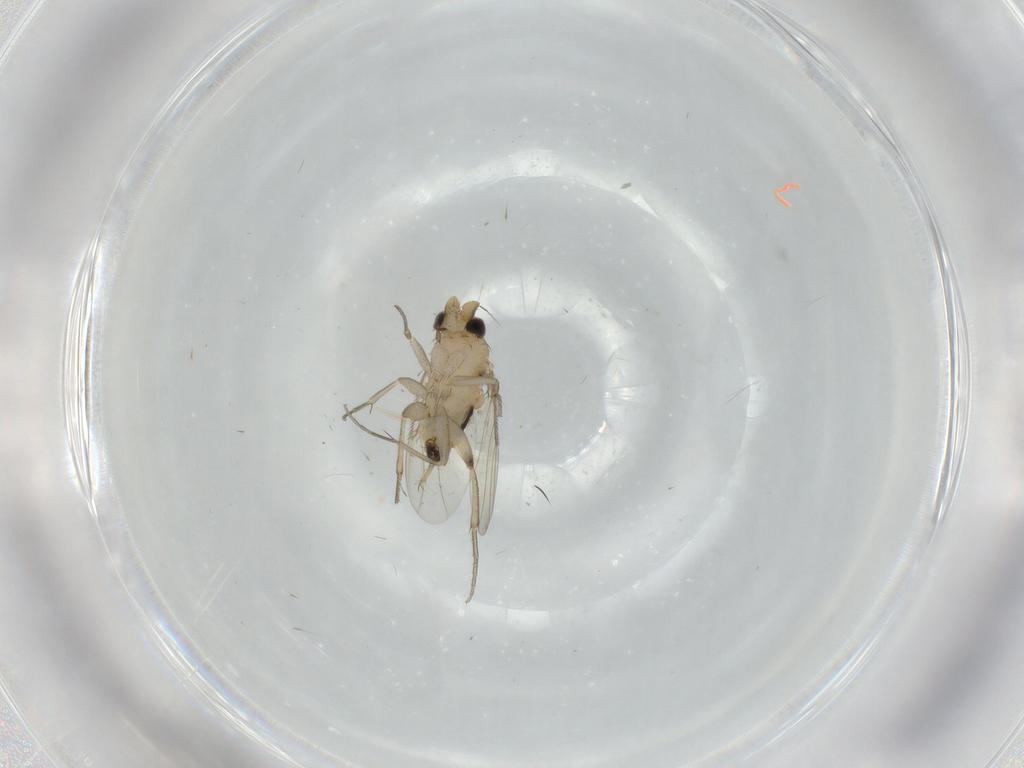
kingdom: Animalia
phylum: Arthropoda
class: Insecta
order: Diptera
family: Phoridae
